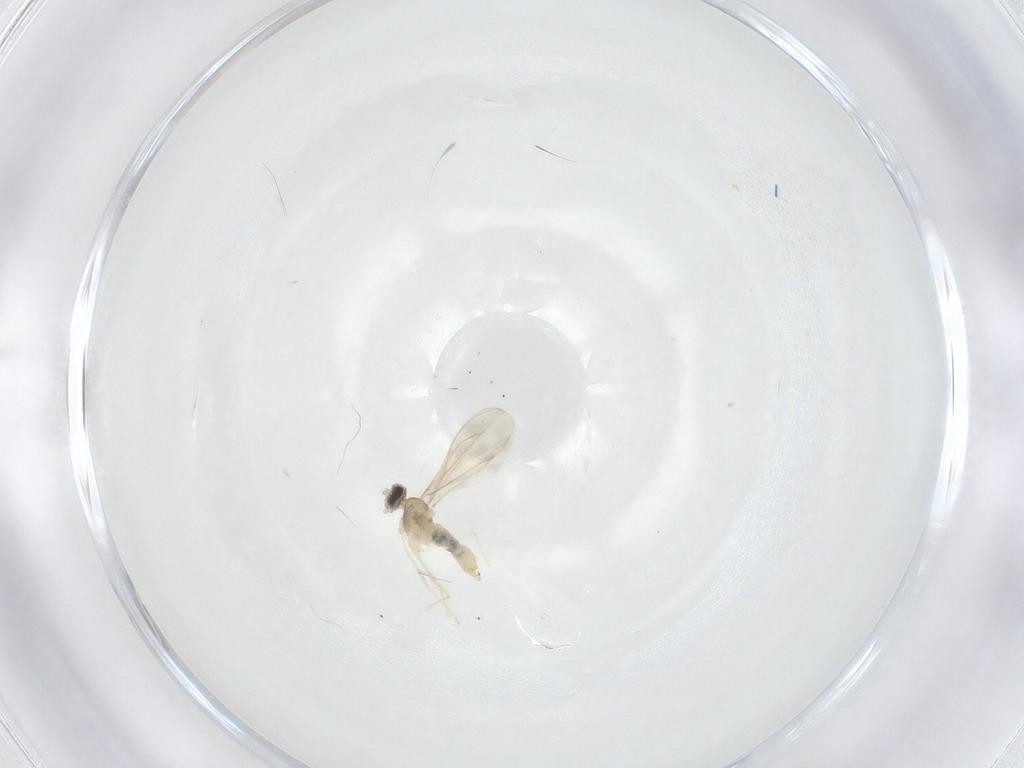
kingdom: Animalia
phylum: Arthropoda
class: Insecta
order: Diptera
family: Cecidomyiidae
